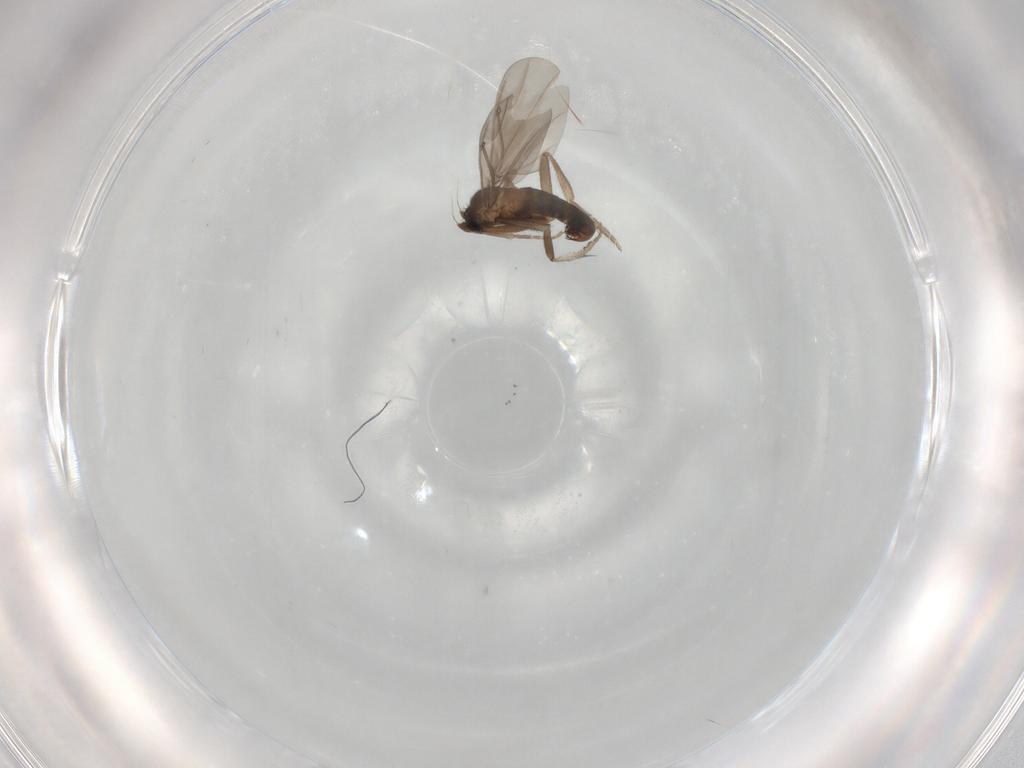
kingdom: Animalia
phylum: Arthropoda
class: Insecta
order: Diptera
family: Phoridae
